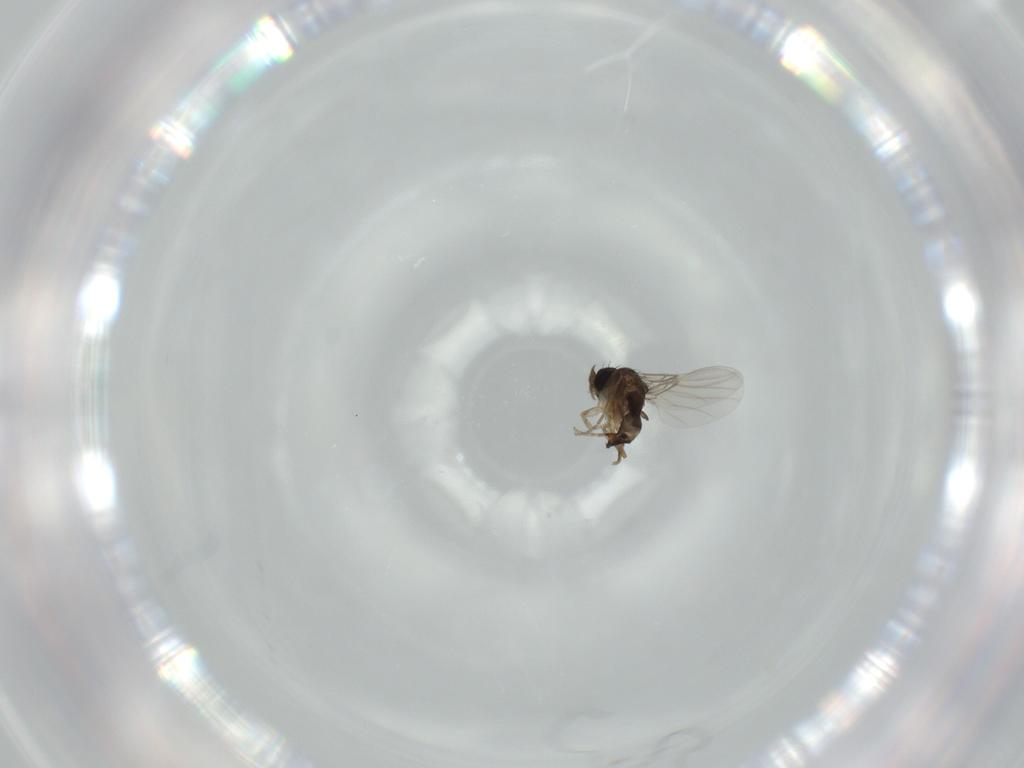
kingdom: Animalia
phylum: Arthropoda
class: Insecta
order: Diptera
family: Phoridae
